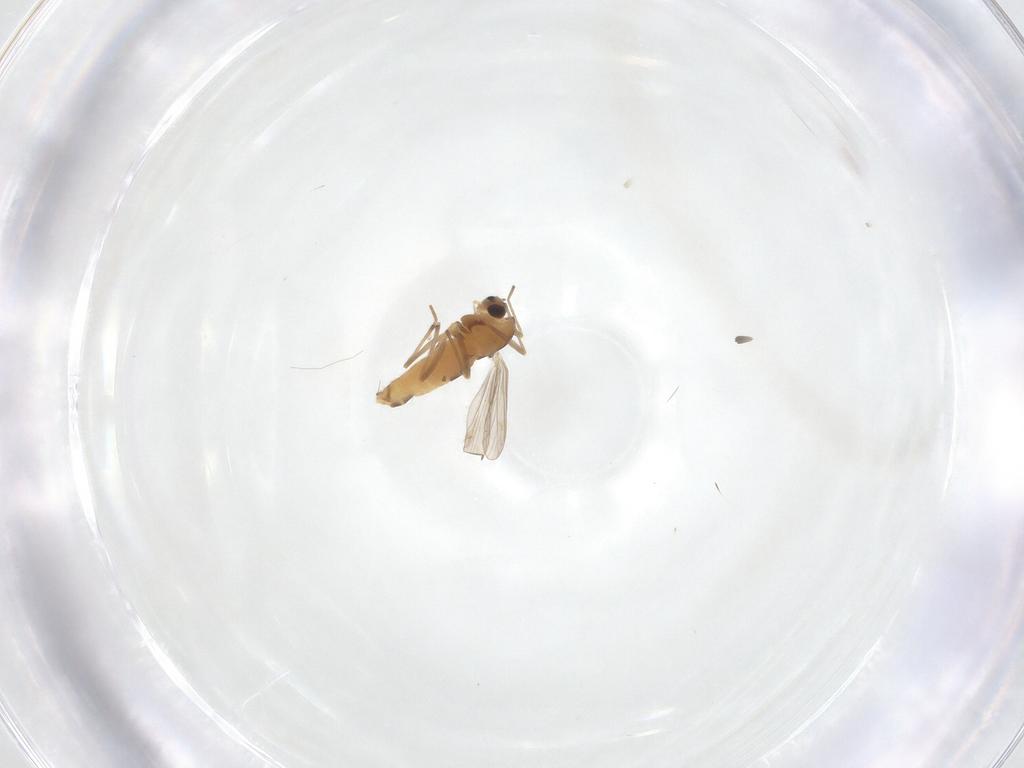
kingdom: Animalia
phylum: Arthropoda
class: Insecta
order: Diptera
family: Chironomidae
